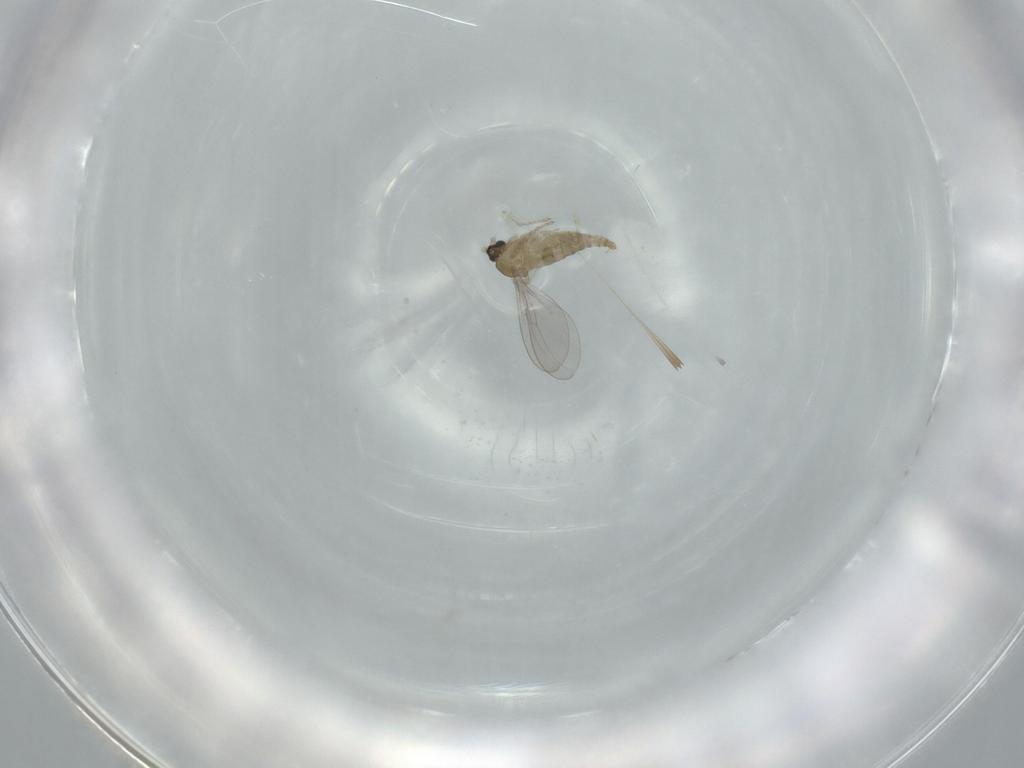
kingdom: Animalia
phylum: Arthropoda
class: Insecta
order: Diptera
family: Cecidomyiidae
